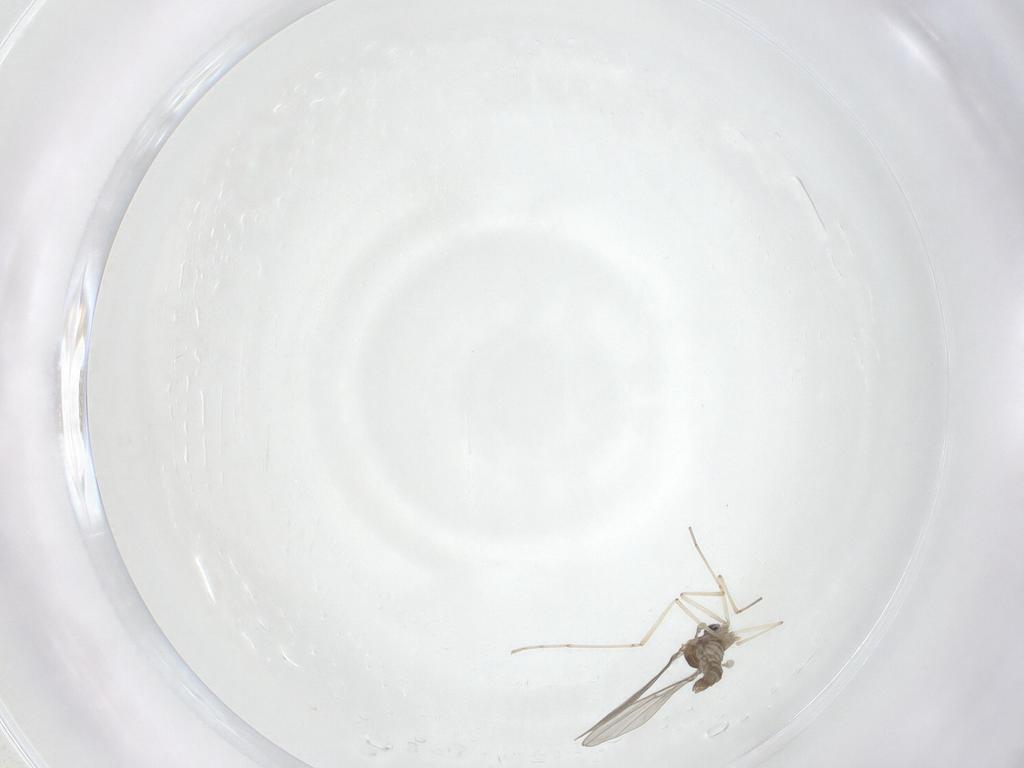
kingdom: Animalia
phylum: Arthropoda
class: Insecta
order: Diptera
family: Cecidomyiidae
